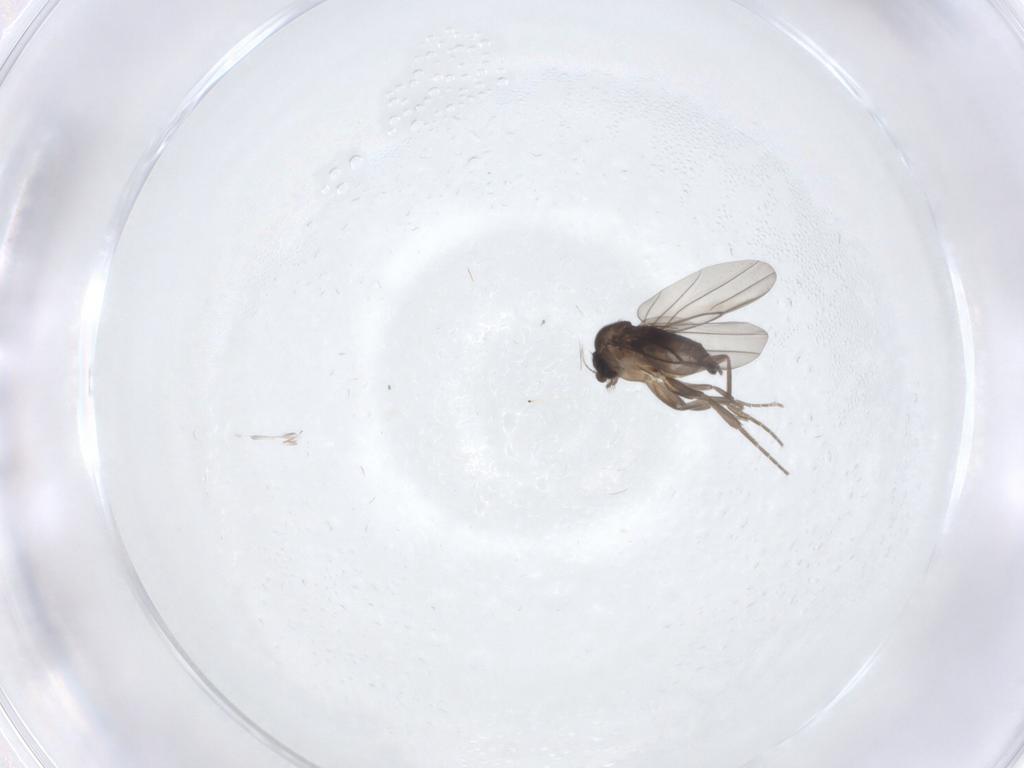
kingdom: Animalia
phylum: Arthropoda
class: Insecta
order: Diptera
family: Phoridae
